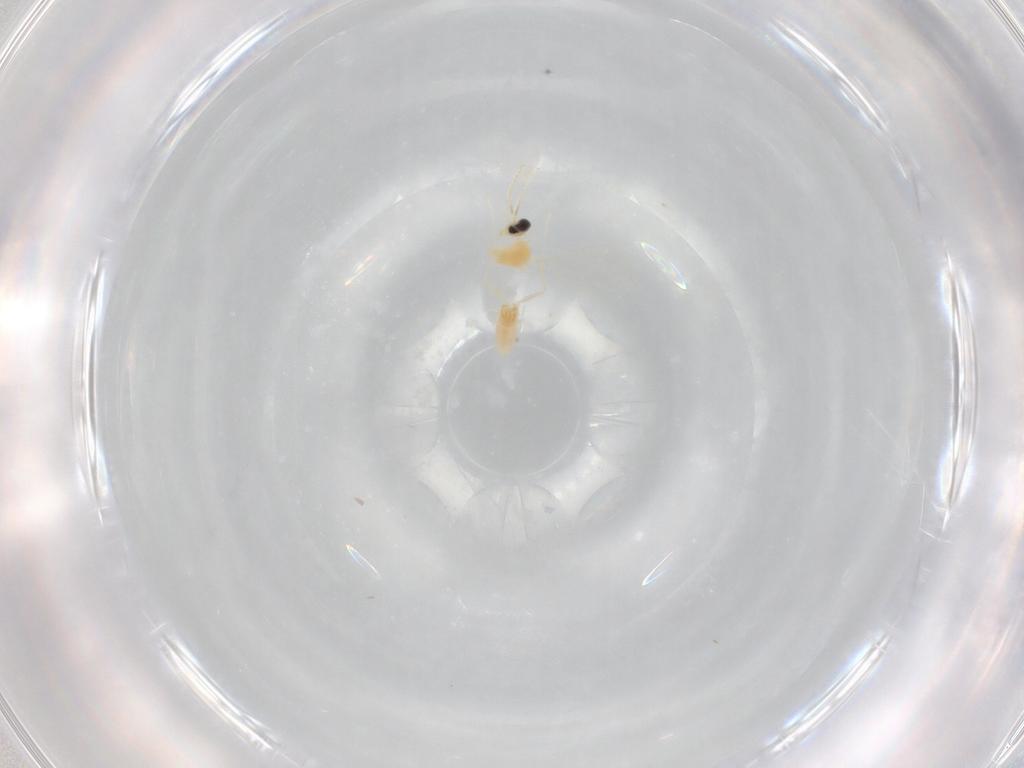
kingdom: Animalia
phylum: Arthropoda
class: Insecta
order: Diptera
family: Cecidomyiidae
